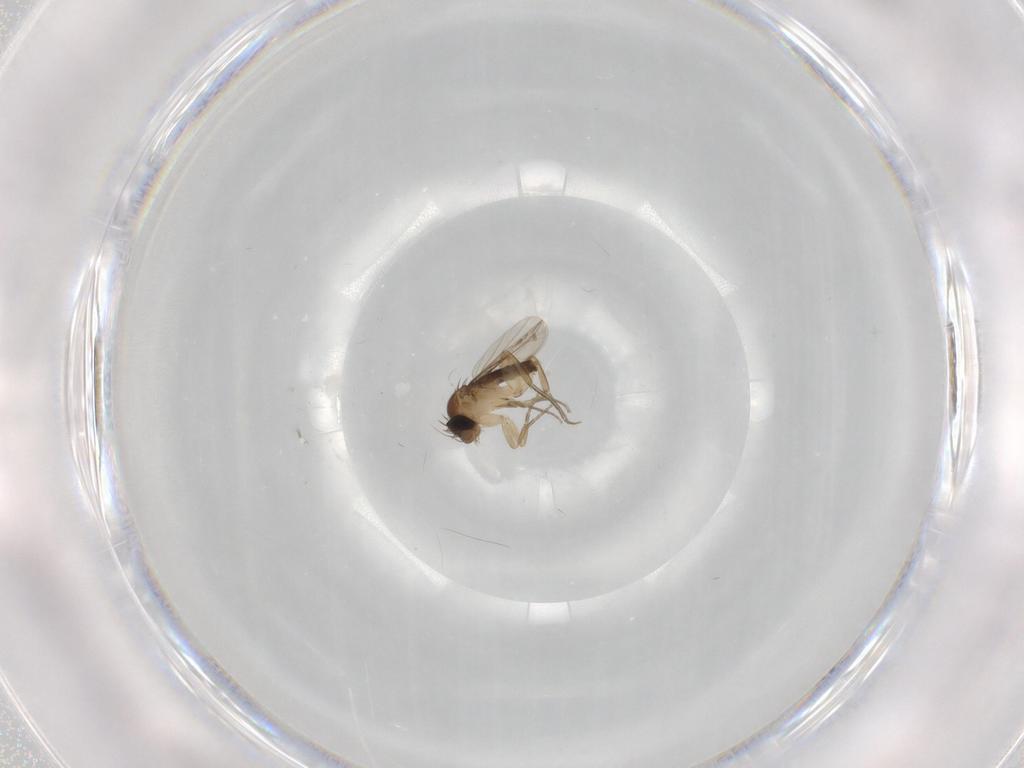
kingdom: Animalia
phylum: Arthropoda
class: Insecta
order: Diptera
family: Phoridae
